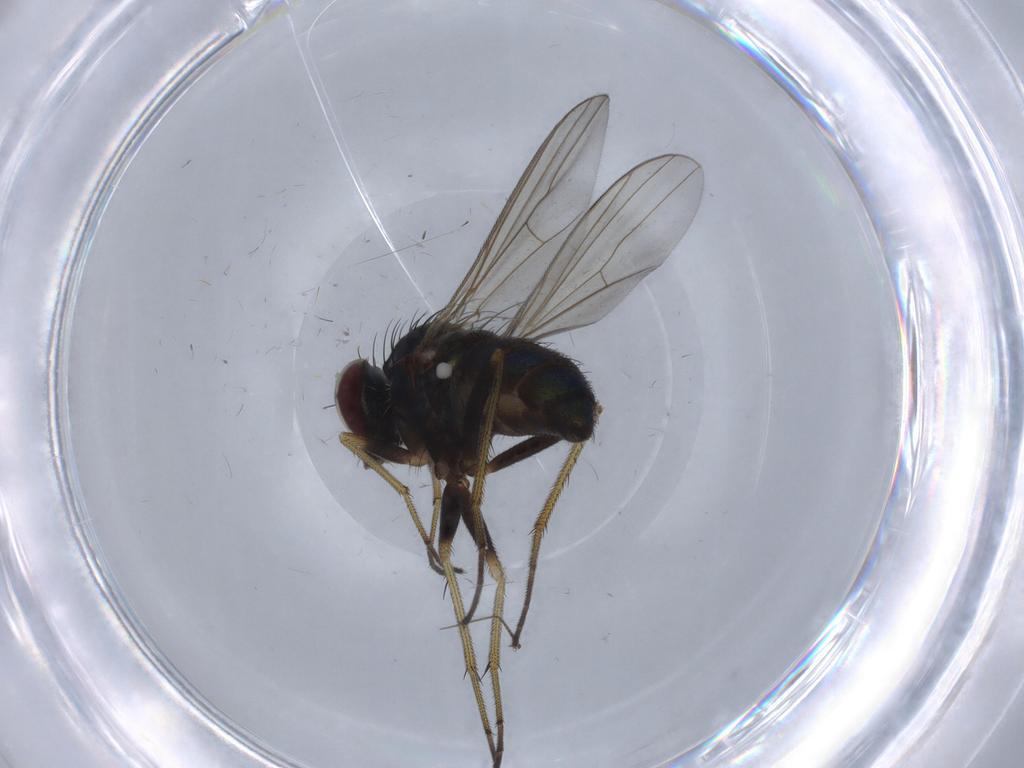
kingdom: Animalia
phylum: Arthropoda
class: Insecta
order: Diptera
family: Dolichopodidae
